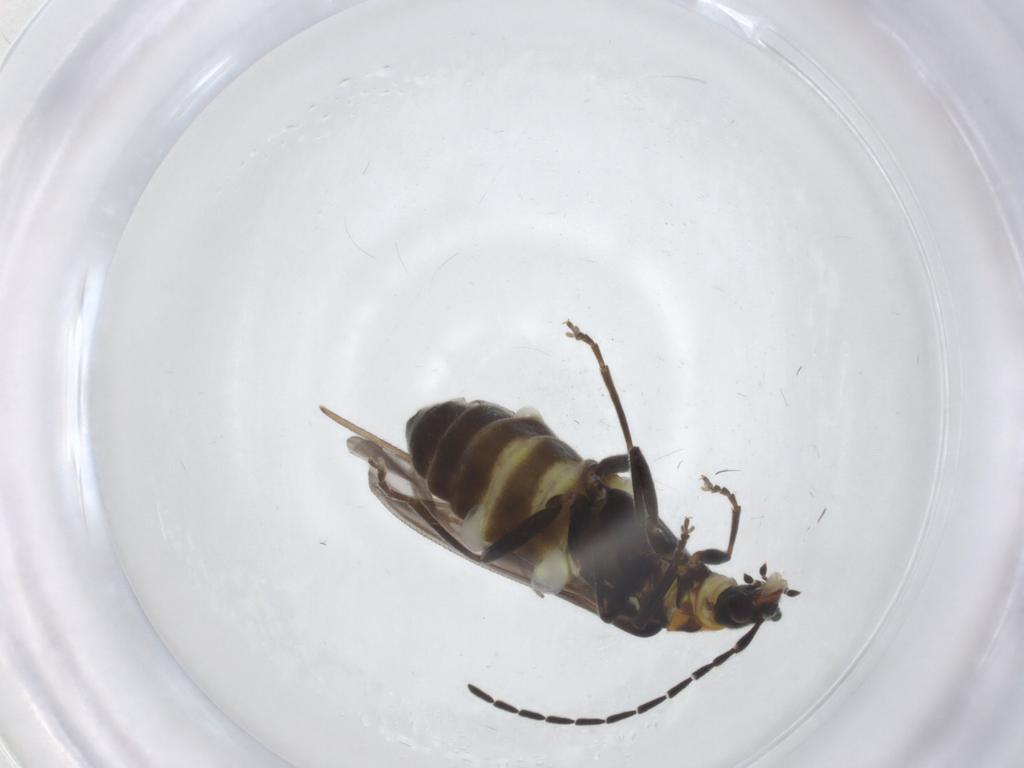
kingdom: Animalia
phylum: Arthropoda
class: Insecta
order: Coleoptera
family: Cantharidae
